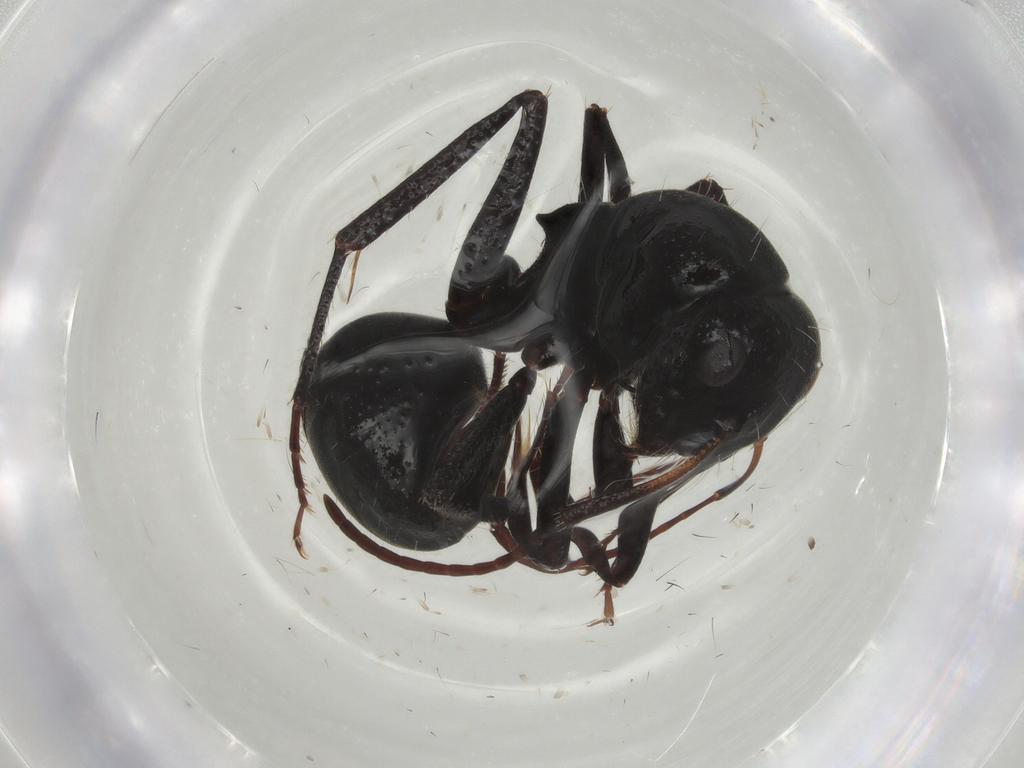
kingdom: Animalia
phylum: Arthropoda
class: Insecta
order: Hymenoptera
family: Formicidae
